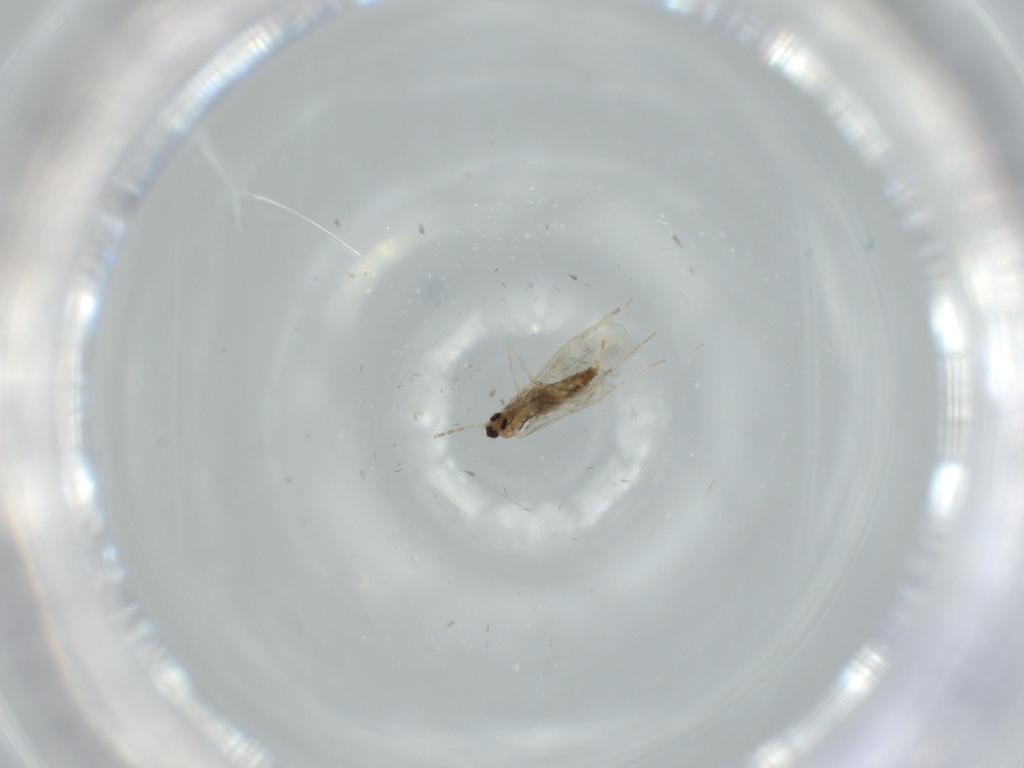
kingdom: Animalia
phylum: Arthropoda
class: Insecta
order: Diptera
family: Cecidomyiidae
